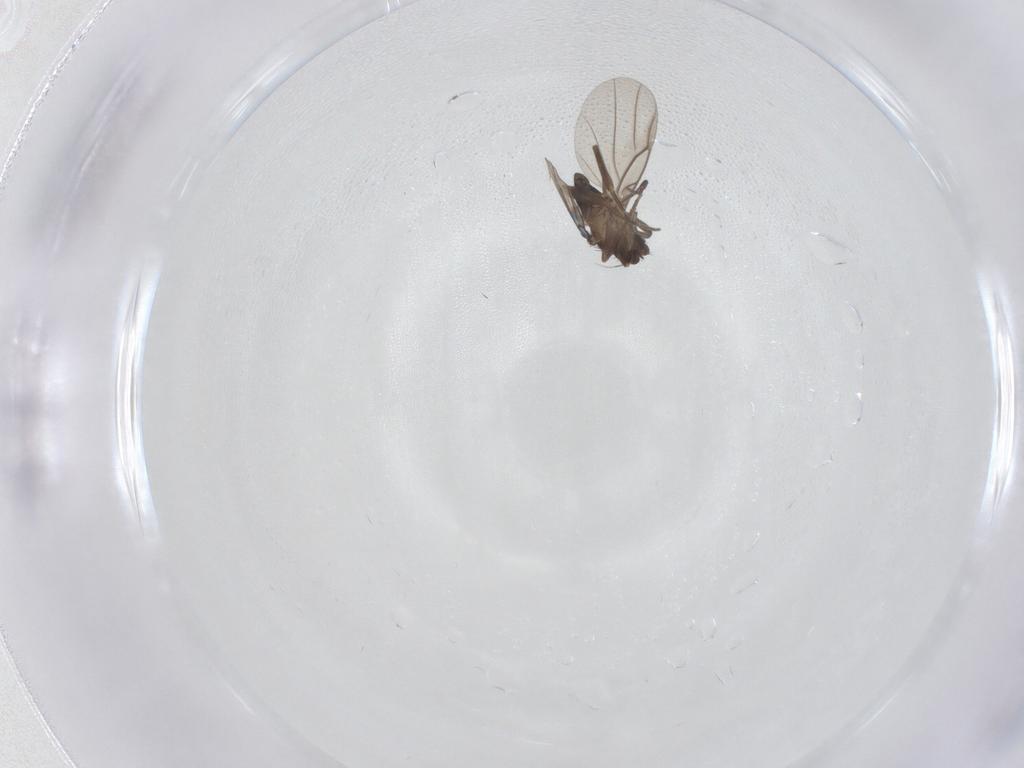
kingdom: Animalia
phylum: Arthropoda
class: Insecta
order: Diptera
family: Phoridae
